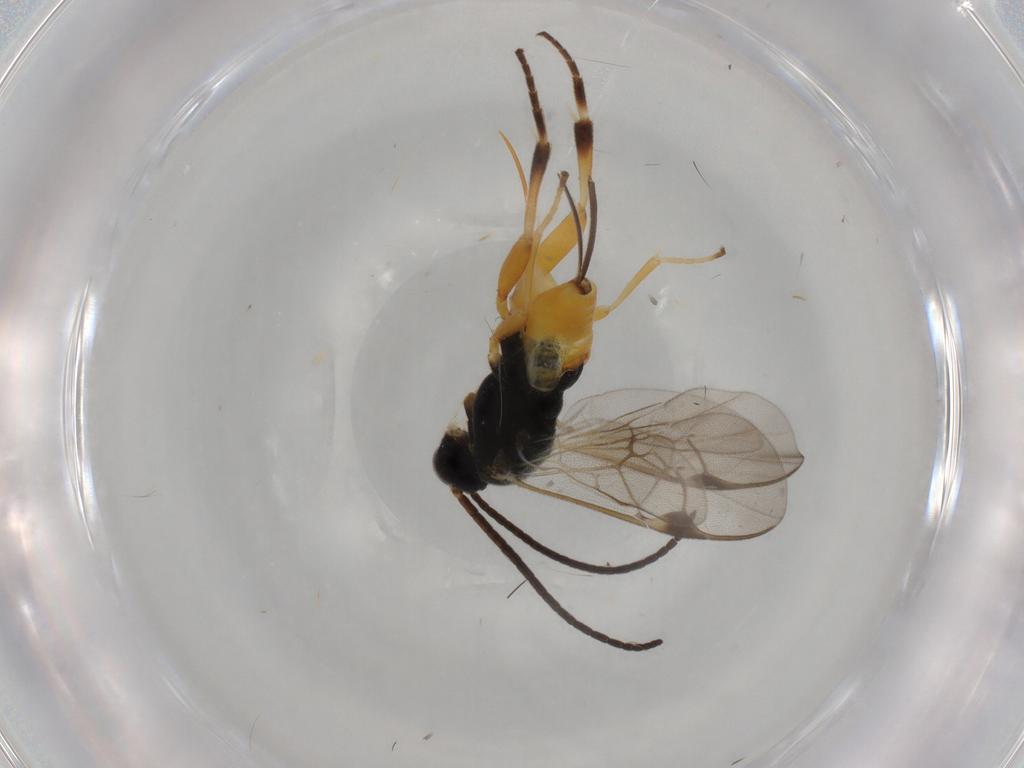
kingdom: Animalia
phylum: Arthropoda
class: Insecta
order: Hymenoptera
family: Braconidae
